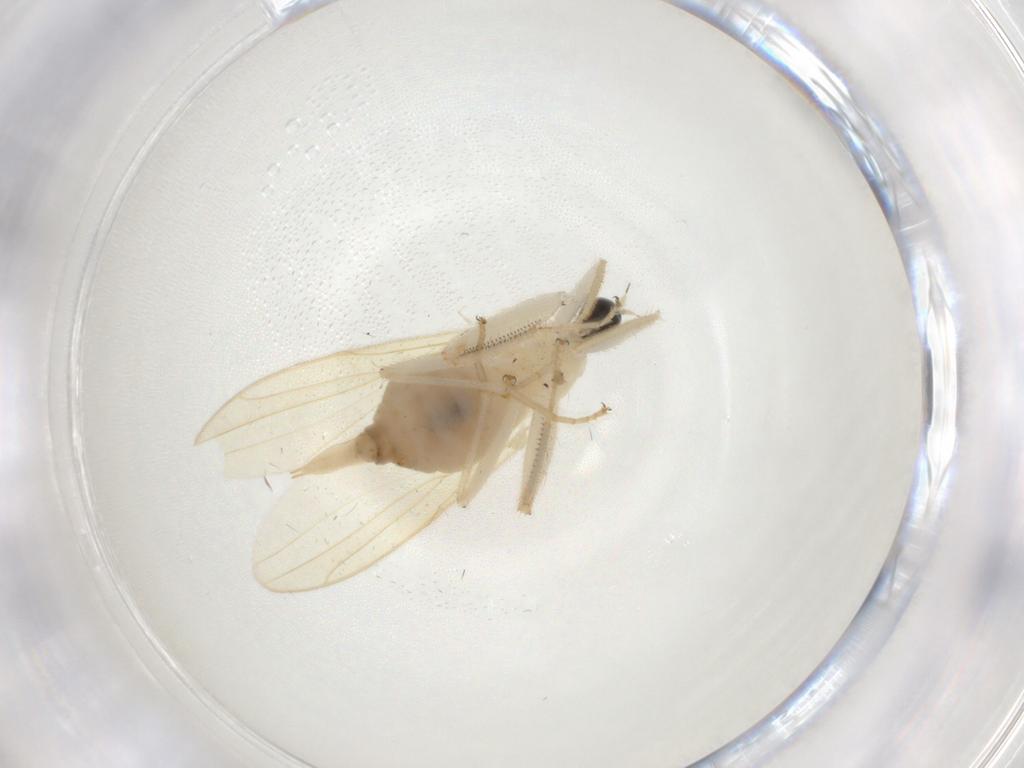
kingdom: Animalia
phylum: Arthropoda
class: Insecta
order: Diptera
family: Hybotidae
